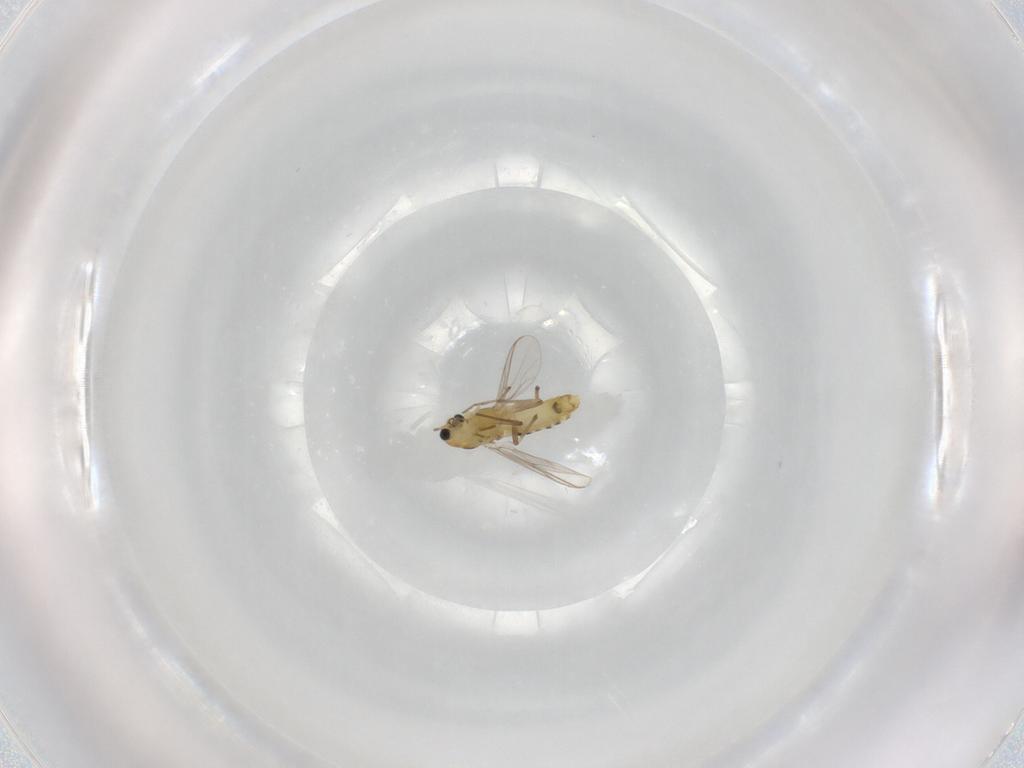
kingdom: Animalia
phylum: Arthropoda
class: Insecta
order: Diptera
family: Chironomidae
